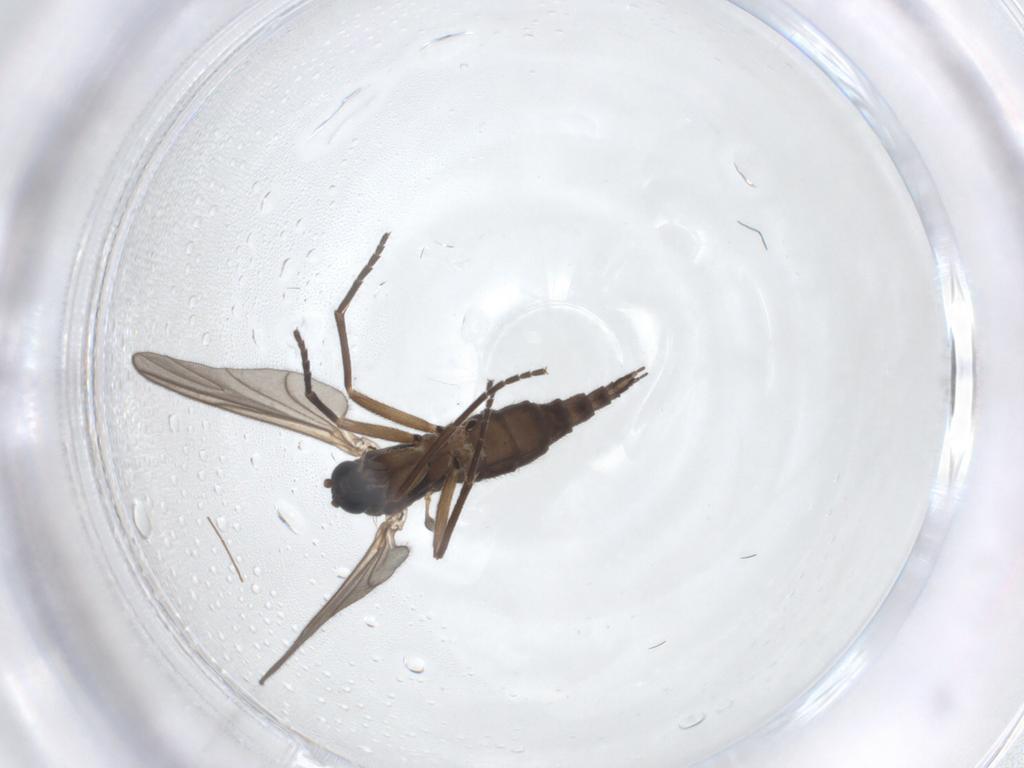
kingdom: Animalia
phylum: Arthropoda
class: Insecta
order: Diptera
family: Sciaridae
